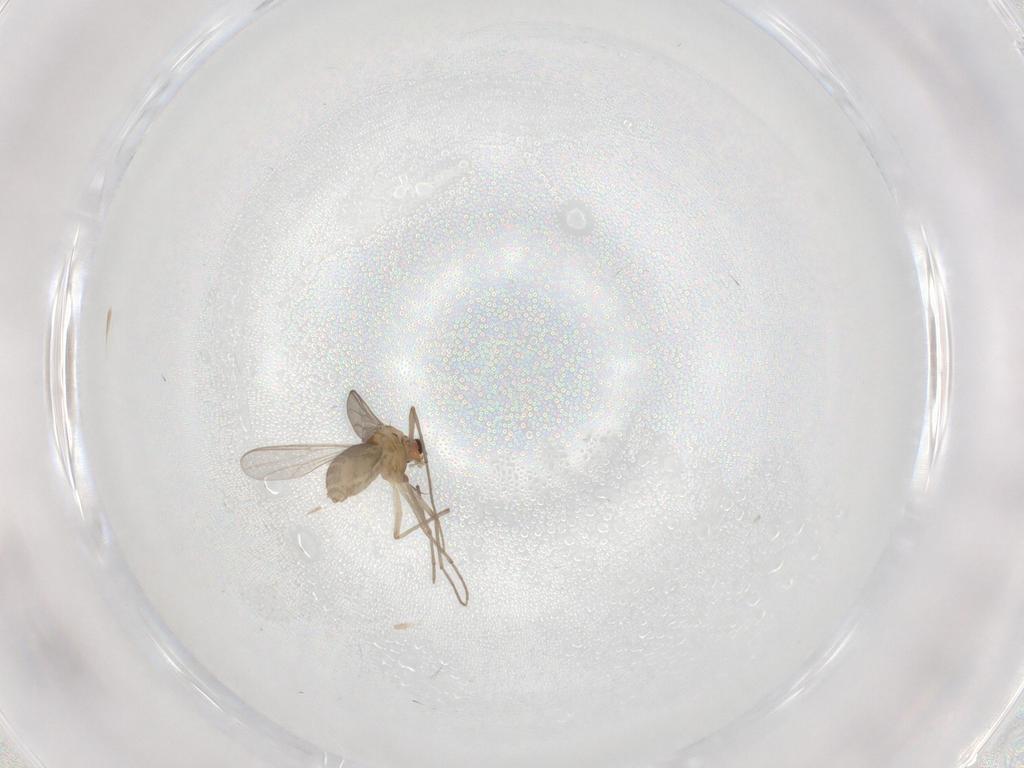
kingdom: Animalia
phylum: Arthropoda
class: Insecta
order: Diptera
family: Chironomidae
